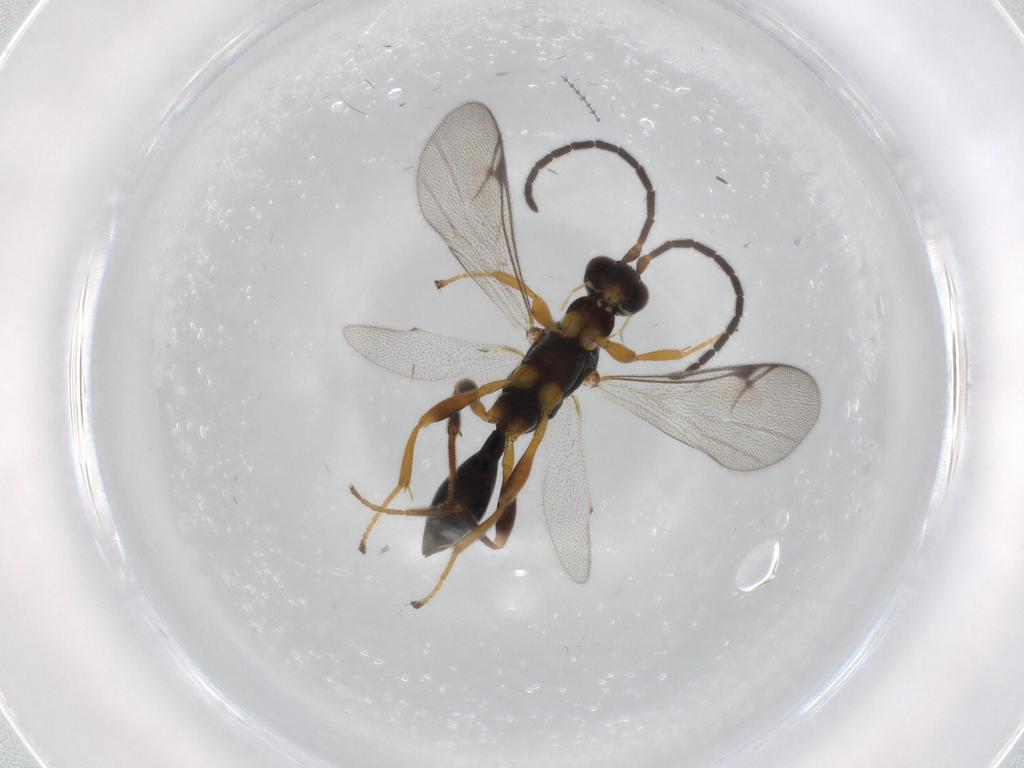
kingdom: Animalia
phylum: Arthropoda
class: Insecta
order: Hymenoptera
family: Proctotrupidae
